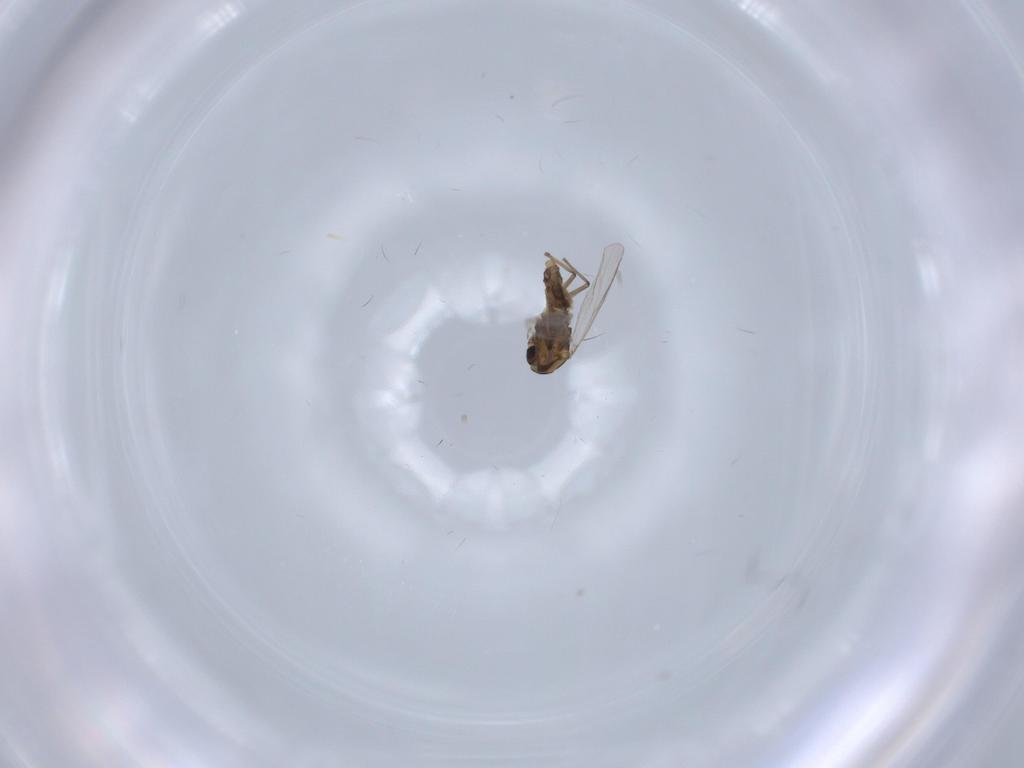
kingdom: Animalia
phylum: Arthropoda
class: Insecta
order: Diptera
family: Chironomidae
